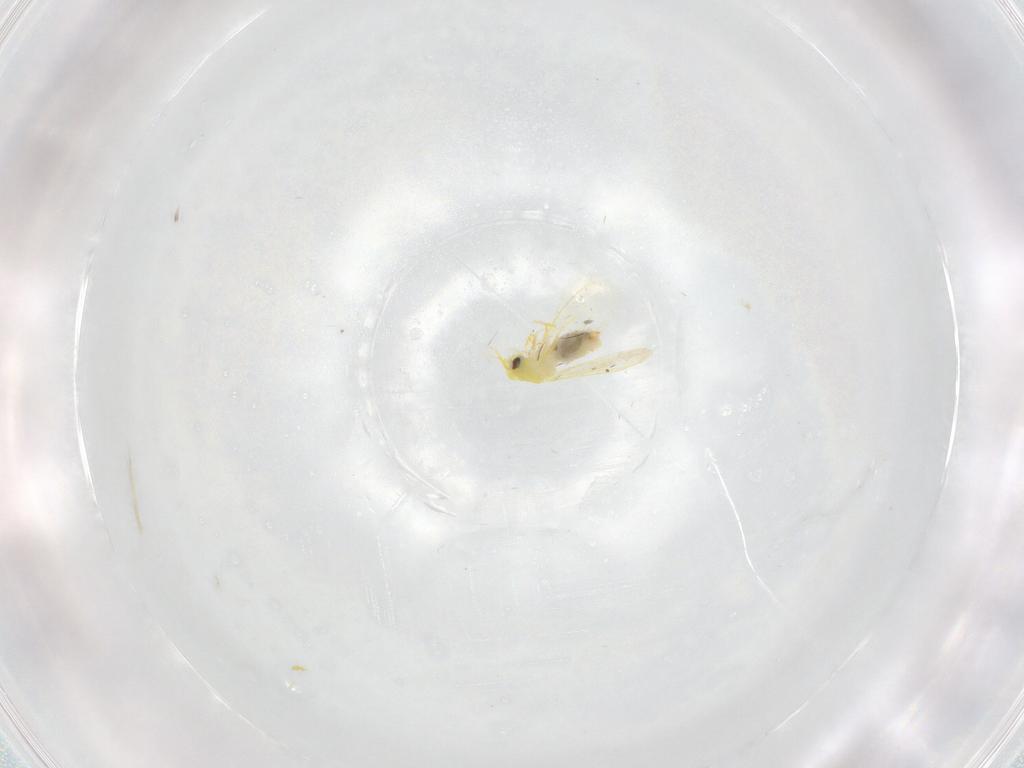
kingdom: Animalia
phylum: Arthropoda
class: Insecta
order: Hemiptera
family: Aleyrodidae
